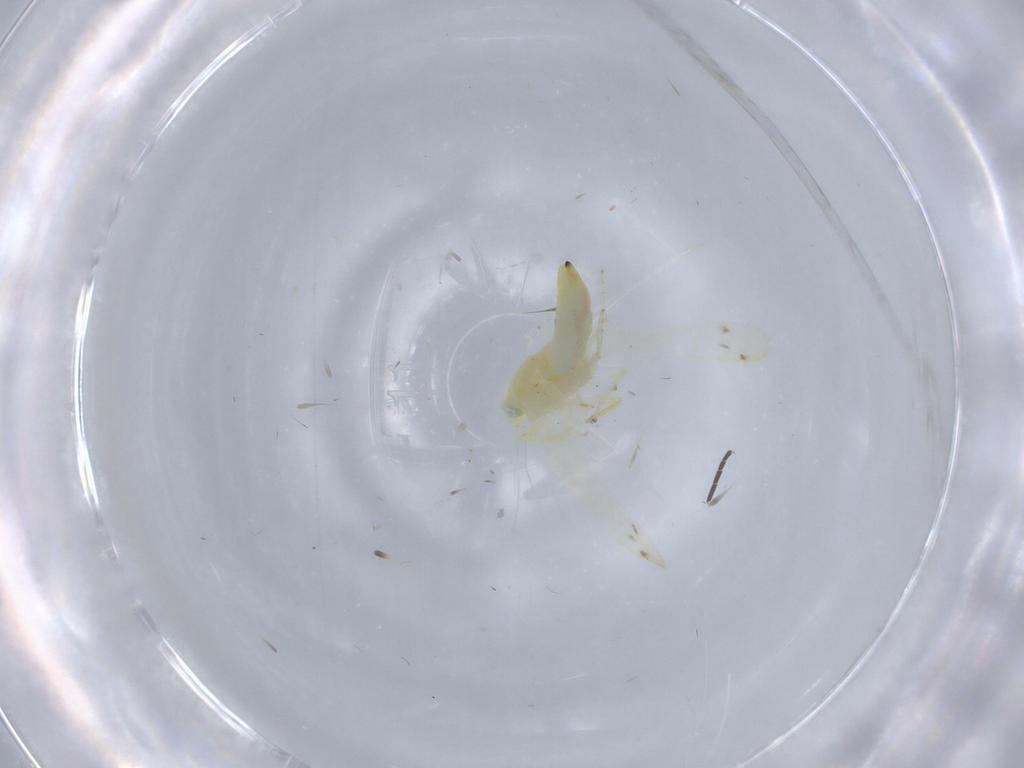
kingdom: Animalia
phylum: Arthropoda
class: Insecta
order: Hemiptera
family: Cicadellidae
